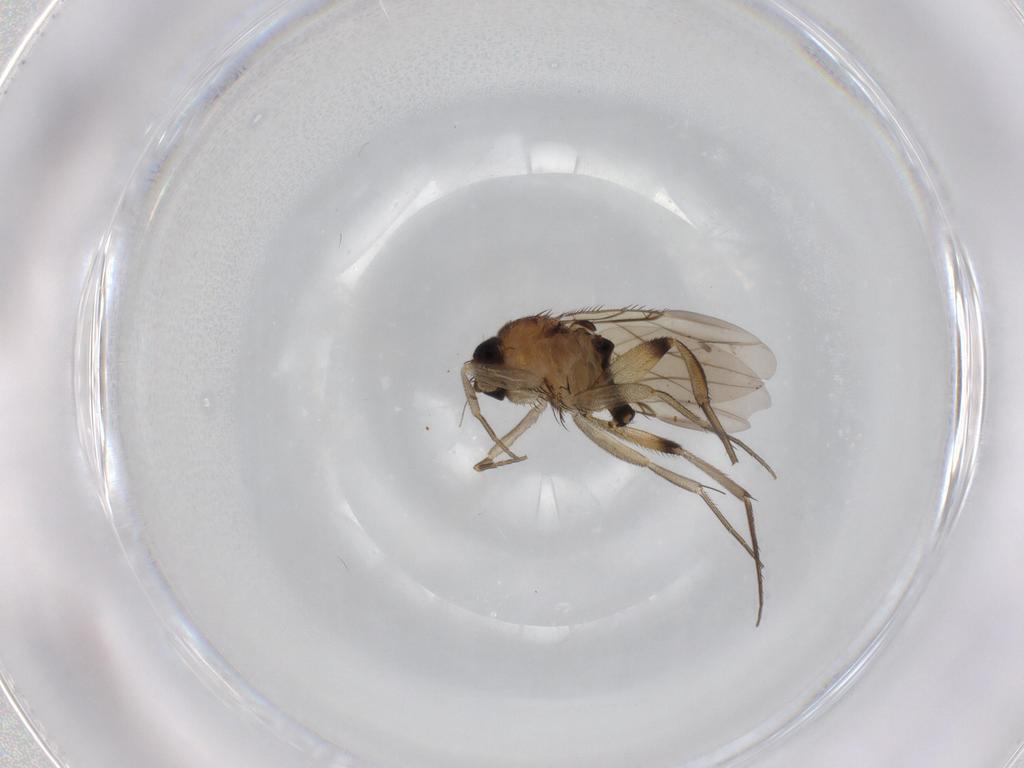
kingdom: Animalia
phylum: Arthropoda
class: Insecta
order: Diptera
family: Phoridae
